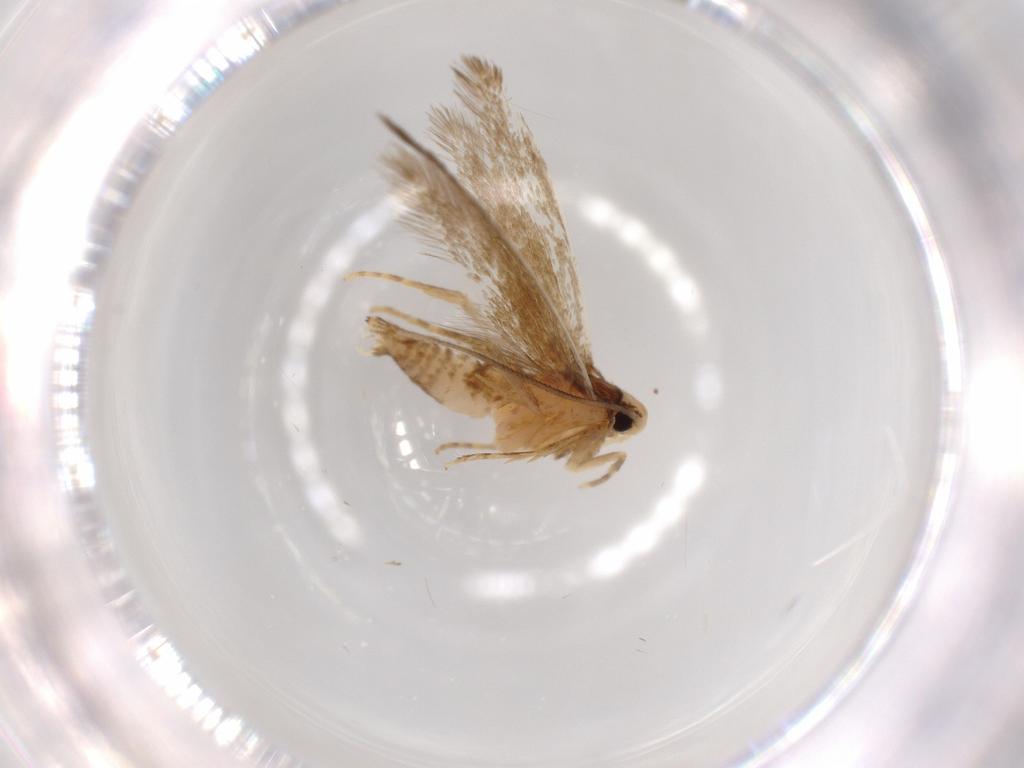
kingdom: Animalia
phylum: Arthropoda
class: Insecta
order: Lepidoptera
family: Tineidae
